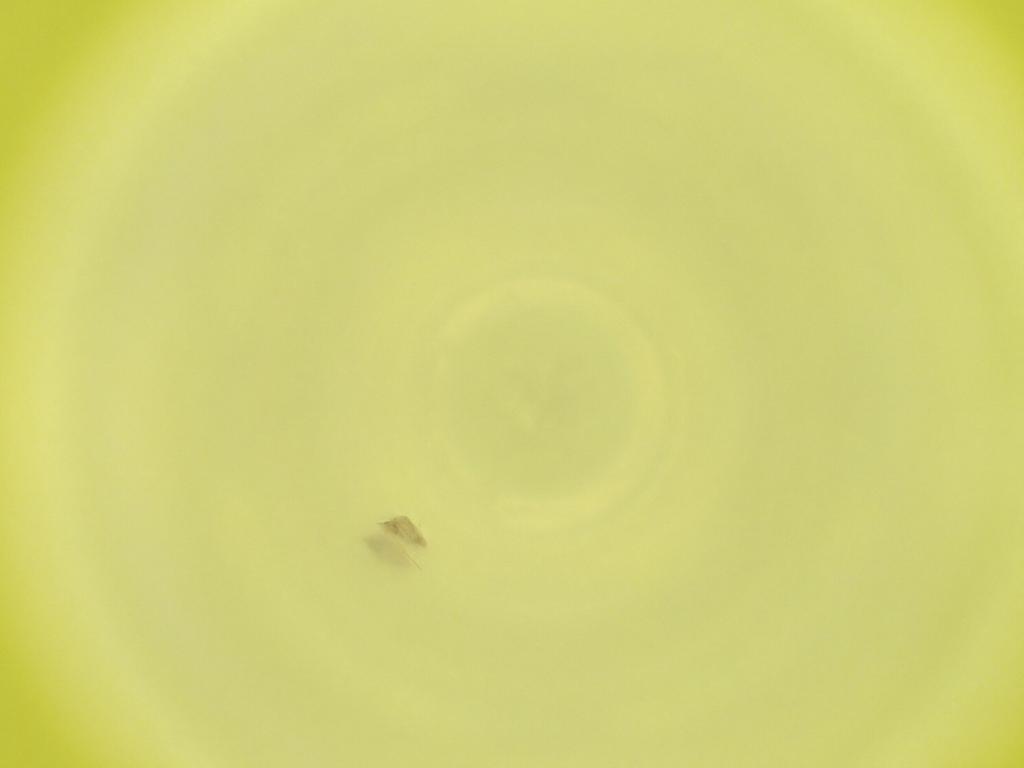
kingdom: Animalia
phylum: Arthropoda
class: Insecta
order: Diptera
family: Cecidomyiidae
